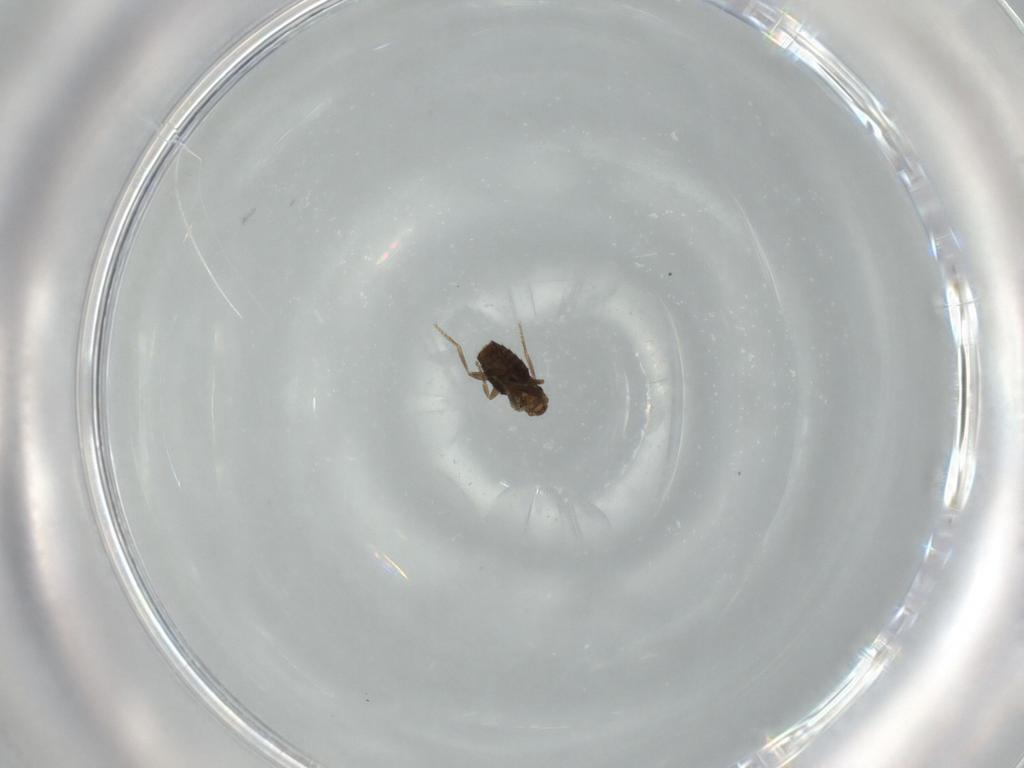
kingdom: Animalia
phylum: Arthropoda
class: Insecta
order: Diptera
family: Phoridae
